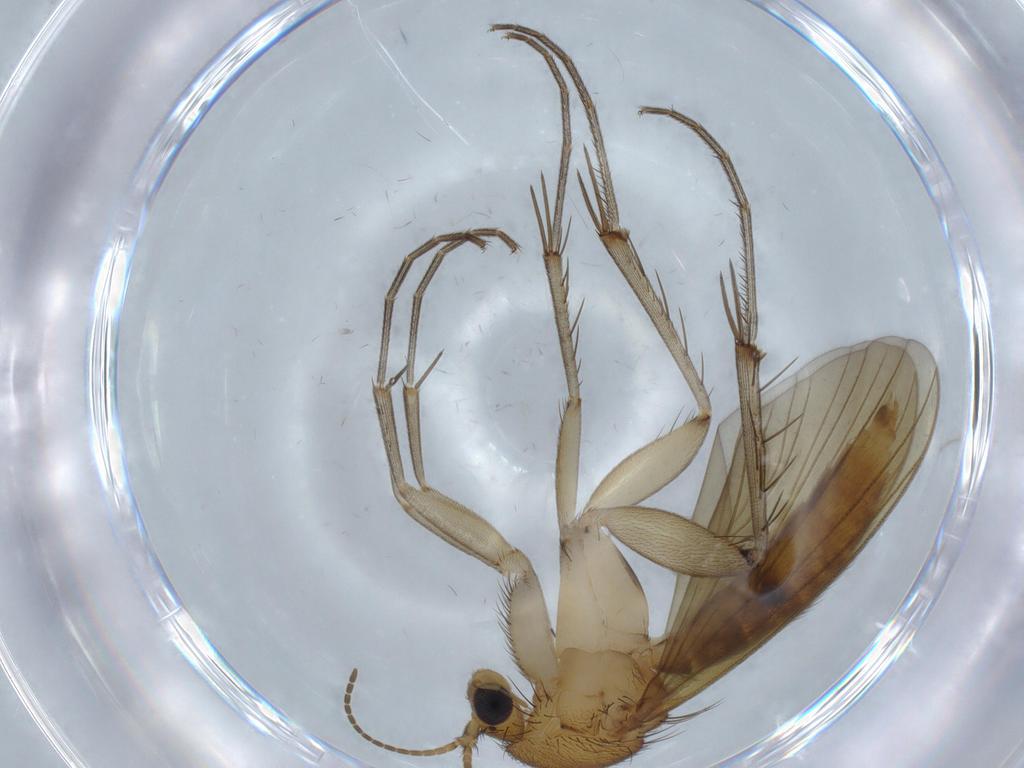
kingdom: Animalia
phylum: Arthropoda
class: Insecta
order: Diptera
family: Mycetophilidae
